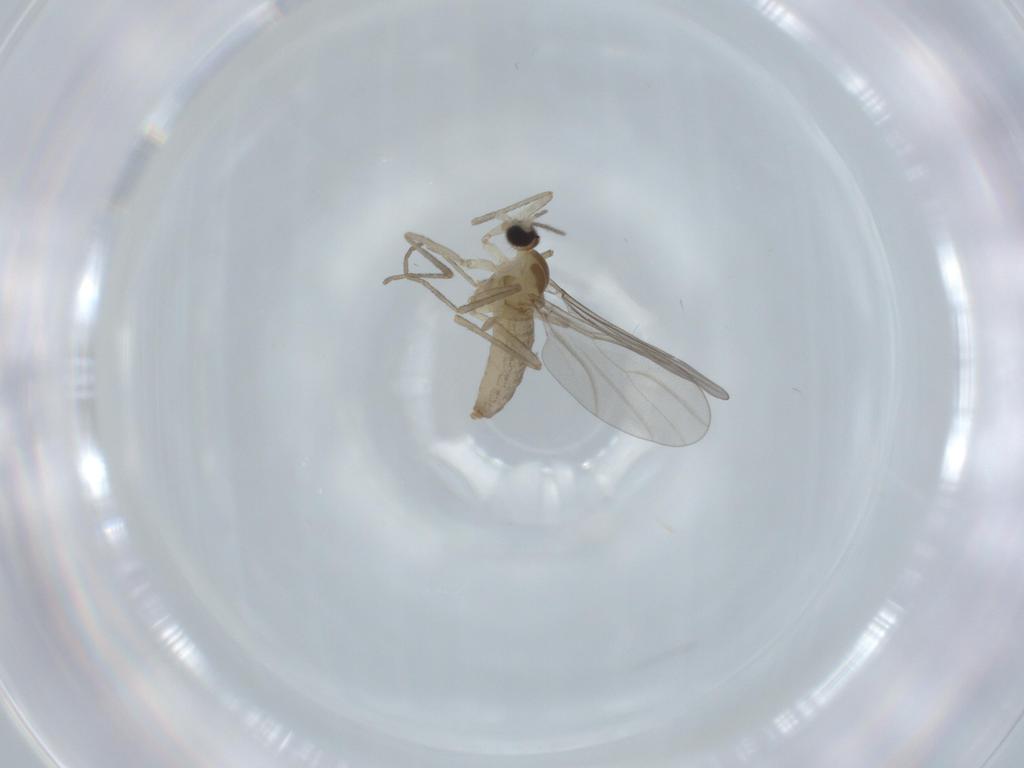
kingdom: Animalia
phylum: Arthropoda
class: Insecta
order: Diptera
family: Cecidomyiidae
